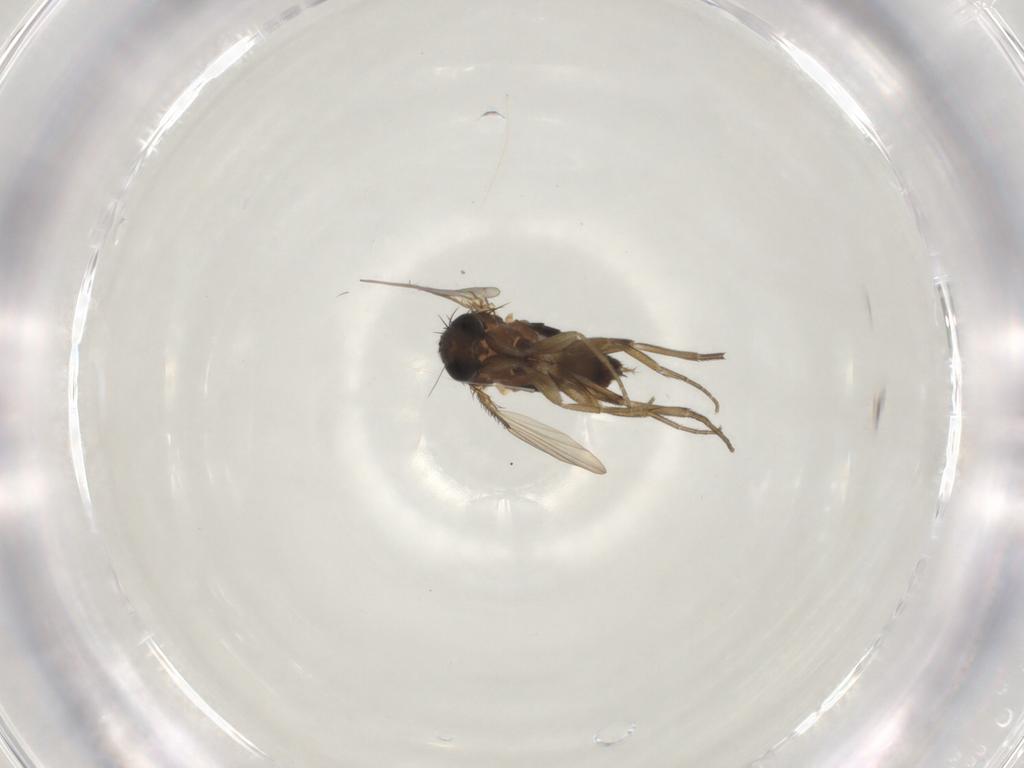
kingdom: Animalia
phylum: Arthropoda
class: Insecta
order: Diptera
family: Phoridae
